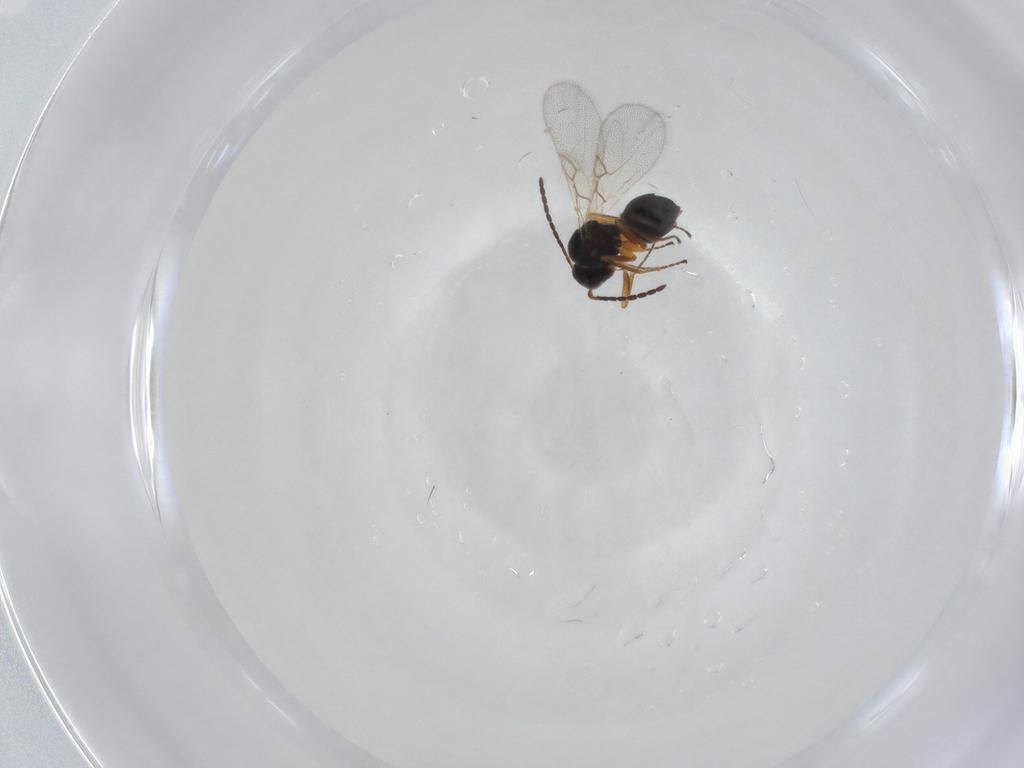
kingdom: Animalia
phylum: Arthropoda
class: Insecta
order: Hymenoptera
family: Figitidae
